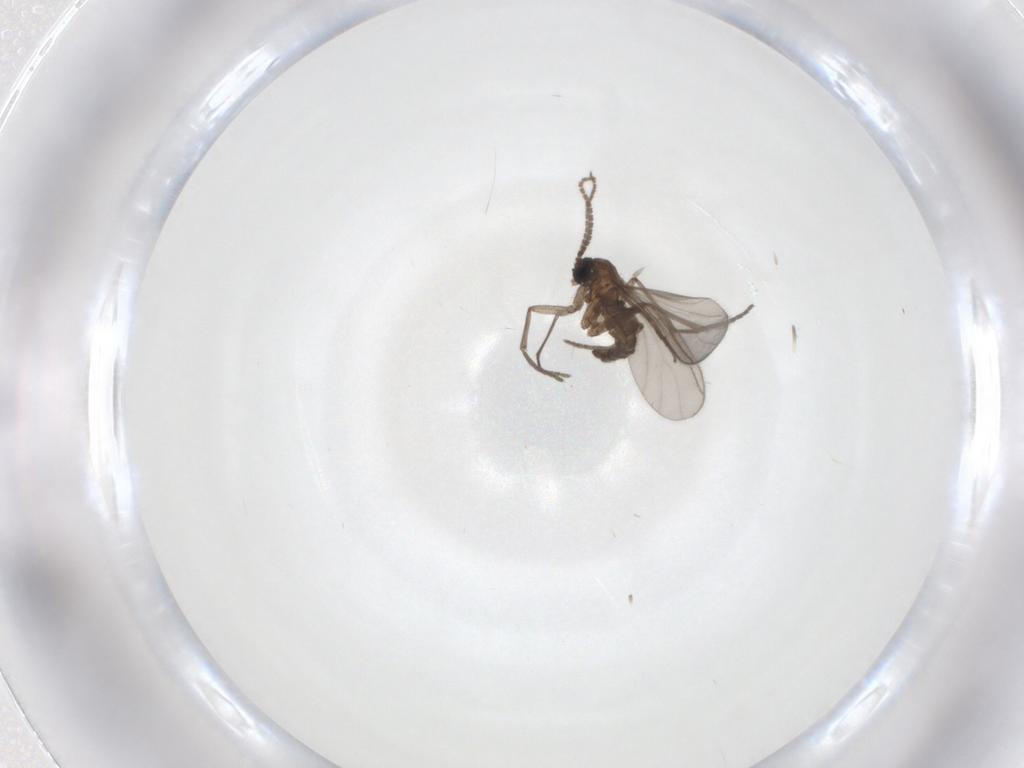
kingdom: Animalia
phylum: Arthropoda
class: Insecta
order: Diptera
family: Sciaridae
